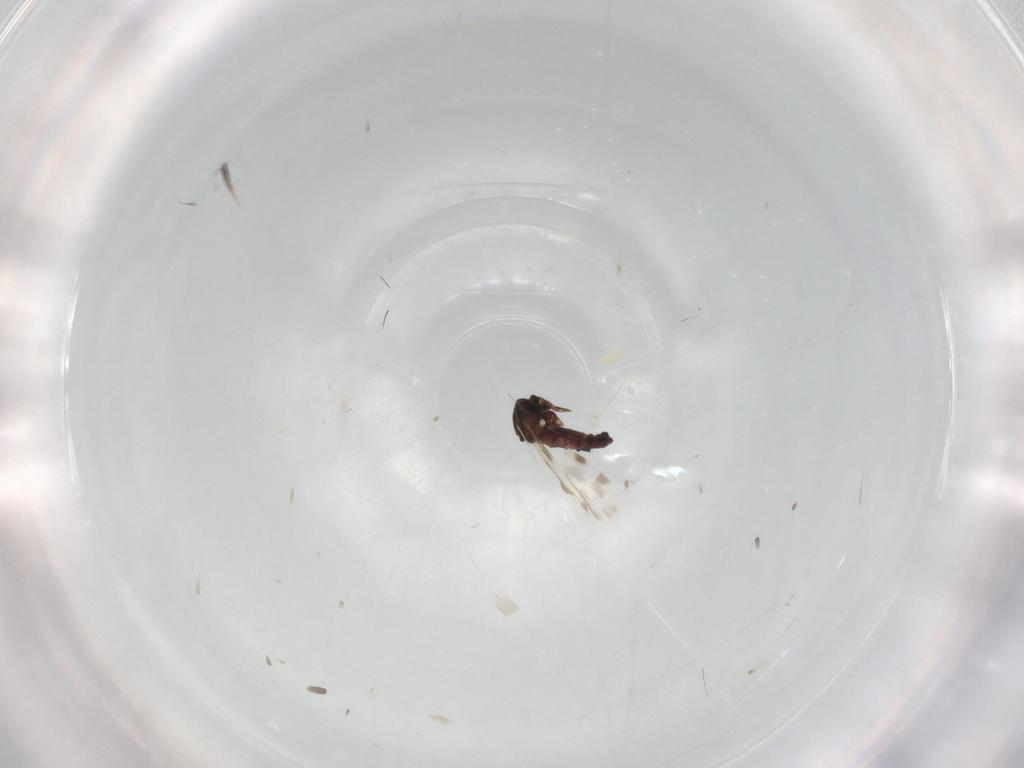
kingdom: Animalia
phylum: Arthropoda
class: Insecta
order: Diptera
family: Ceratopogonidae
